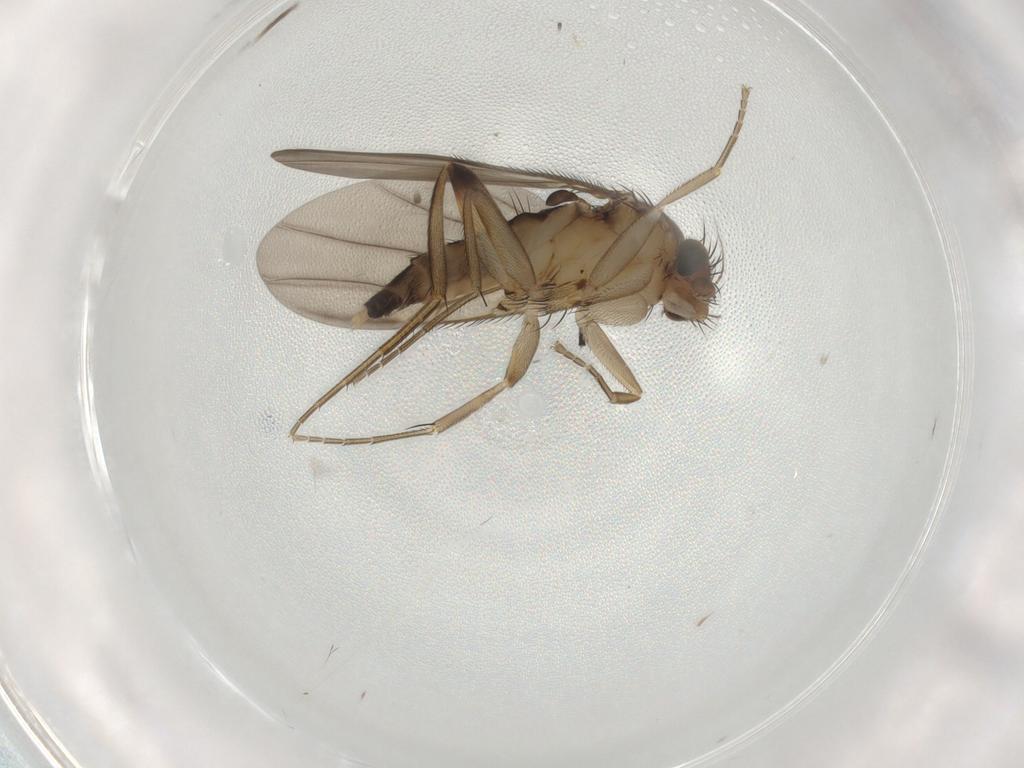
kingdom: Animalia
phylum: Arthropoda
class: Insecta
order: Diptera
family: Phoridae
